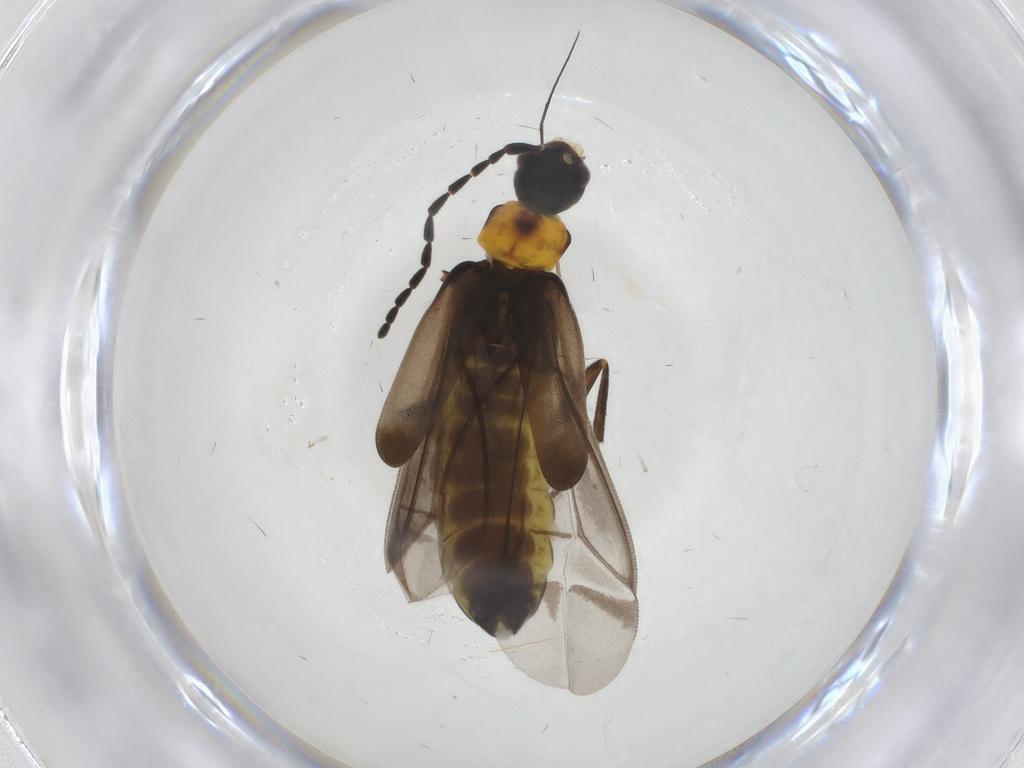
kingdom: Animalia
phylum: Arthropoda
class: Insecta
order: Coleoptera
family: Cantharidae
